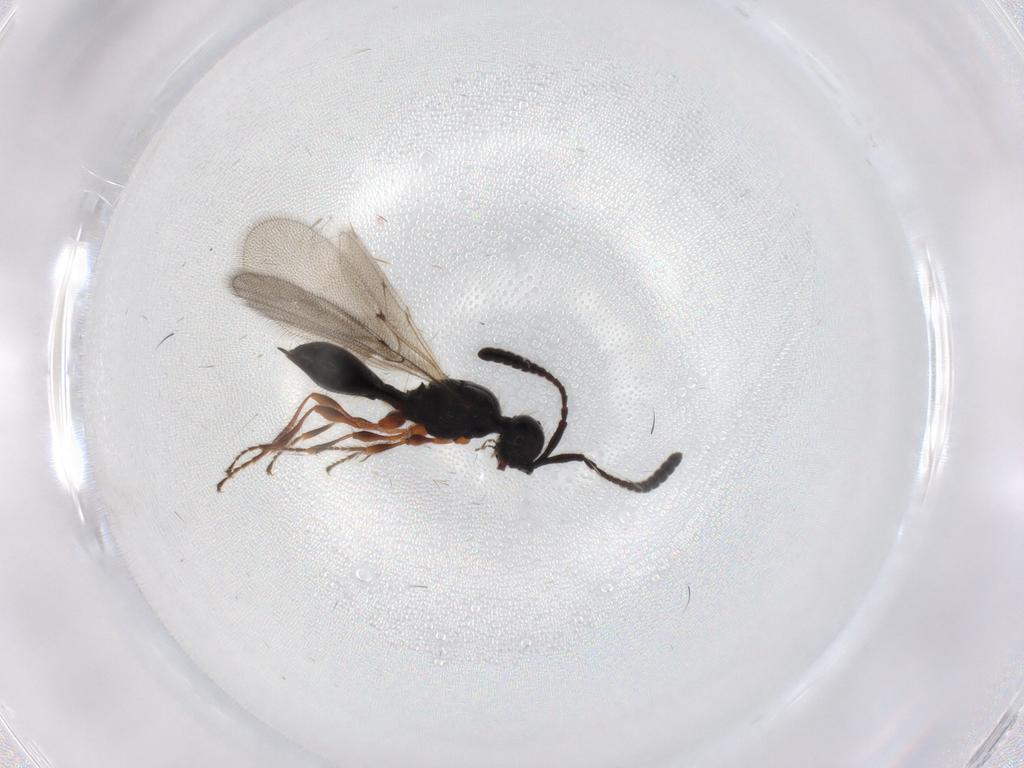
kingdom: Animalia
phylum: Arthropoda
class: Insecta
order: Hymenoptera
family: Diapriidae
